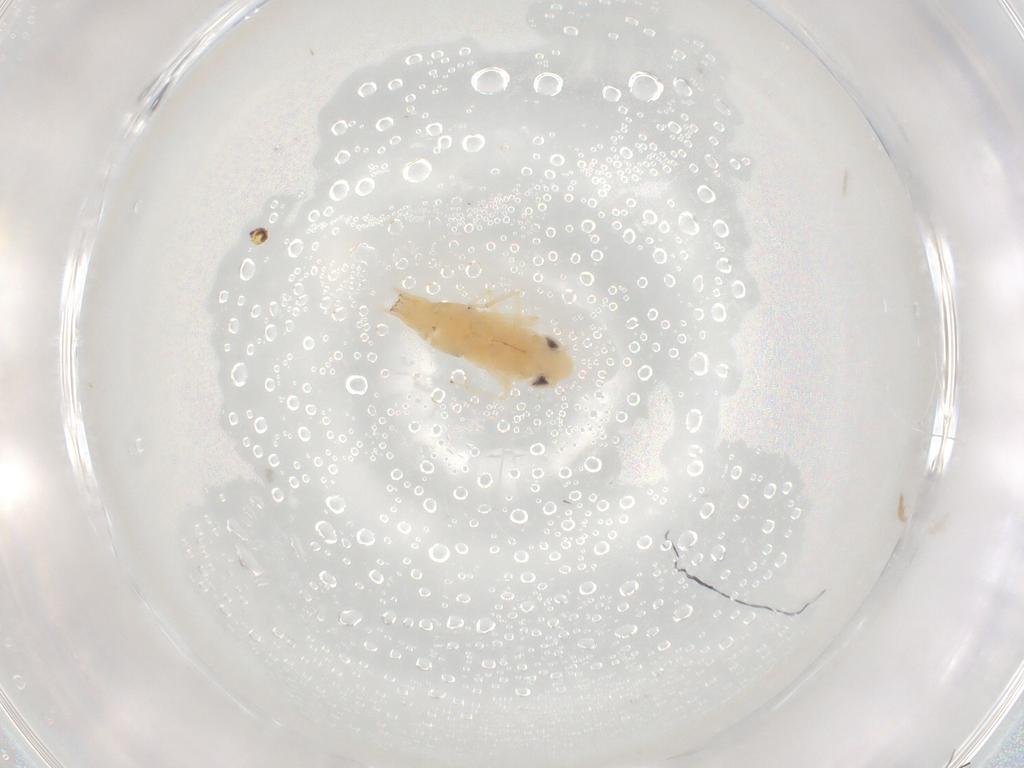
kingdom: Animalia
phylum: Arthropoda
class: Insecta
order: Hemiptera
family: Cicadellidae
